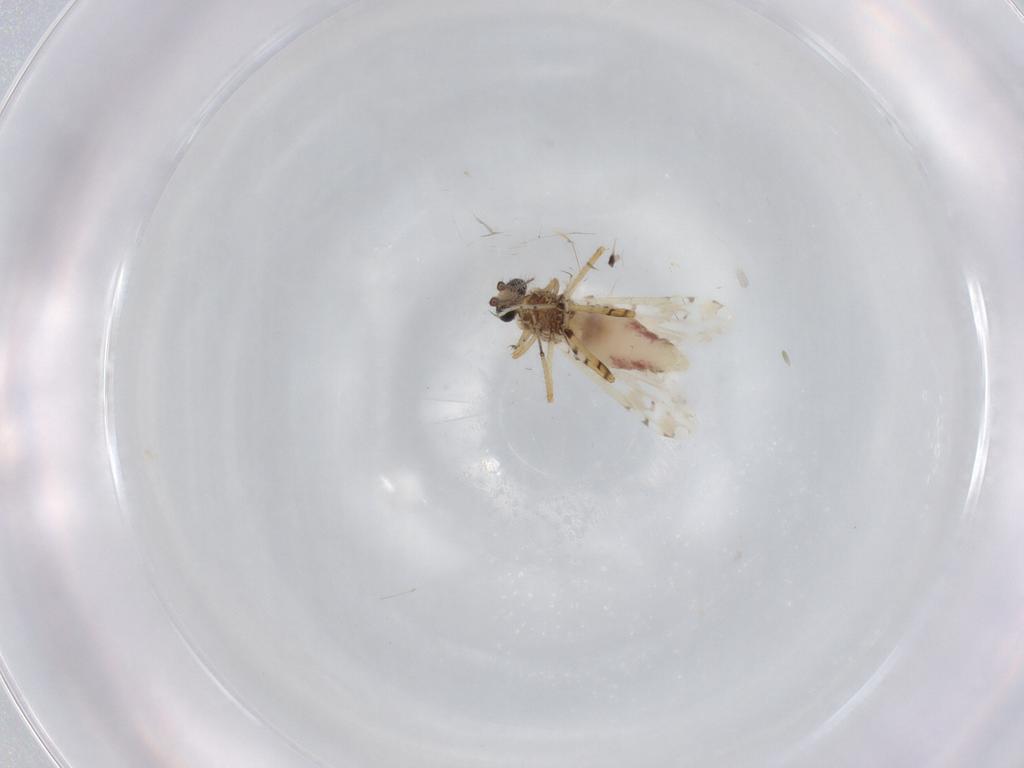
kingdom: Animalia
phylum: Arthropoda
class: Insecta
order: Diptera
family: Ceratopogonidae
